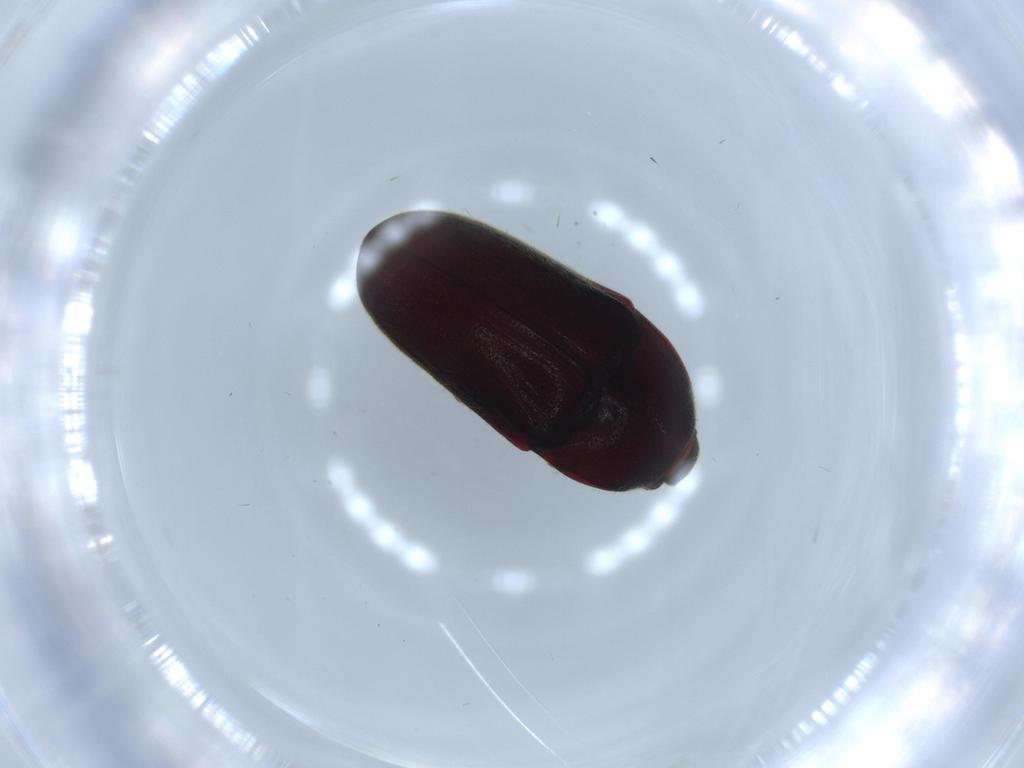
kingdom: Animalia
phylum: Arthropoda
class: Insecta
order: Coleoptera
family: Throscidae
